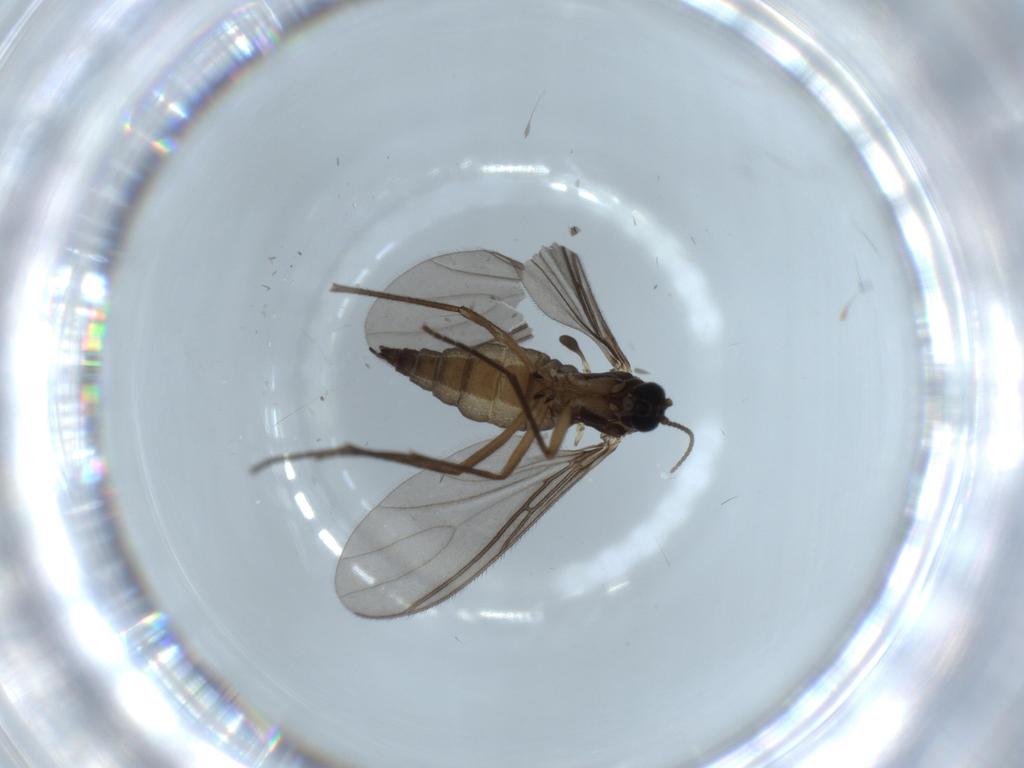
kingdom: Animalia
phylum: Arthropoda
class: Insecta
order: Diptera
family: Sciaridae
